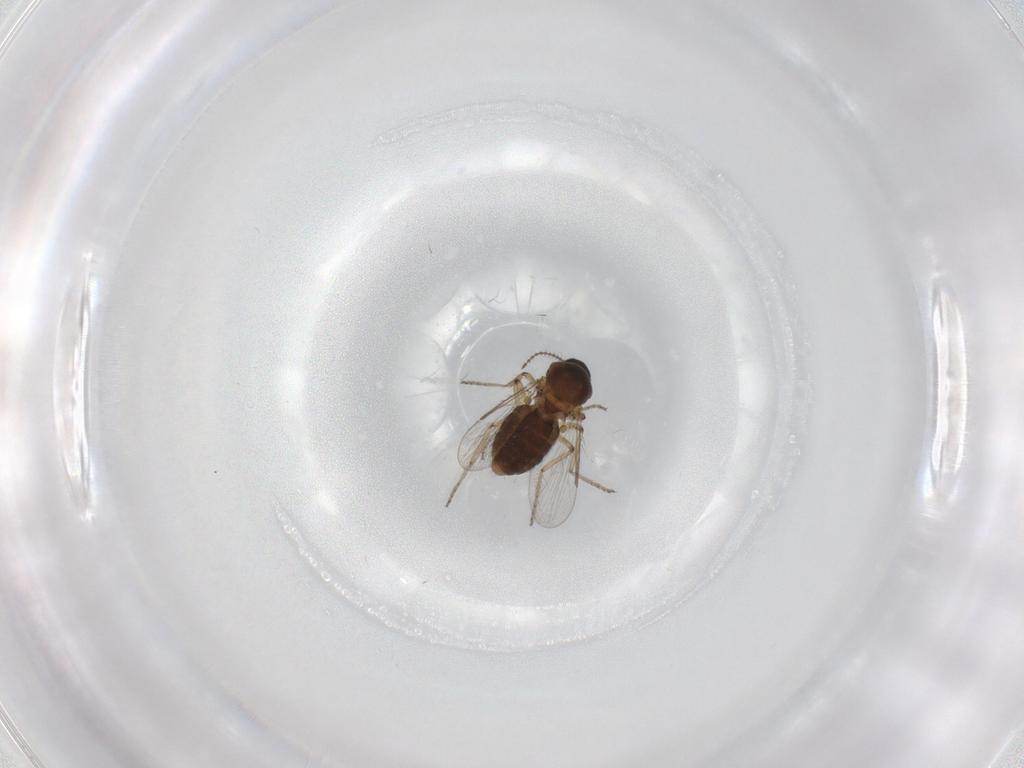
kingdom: Animalia
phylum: Arthropoda
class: Insecta
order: Diptera
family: Ceratopogonidae
